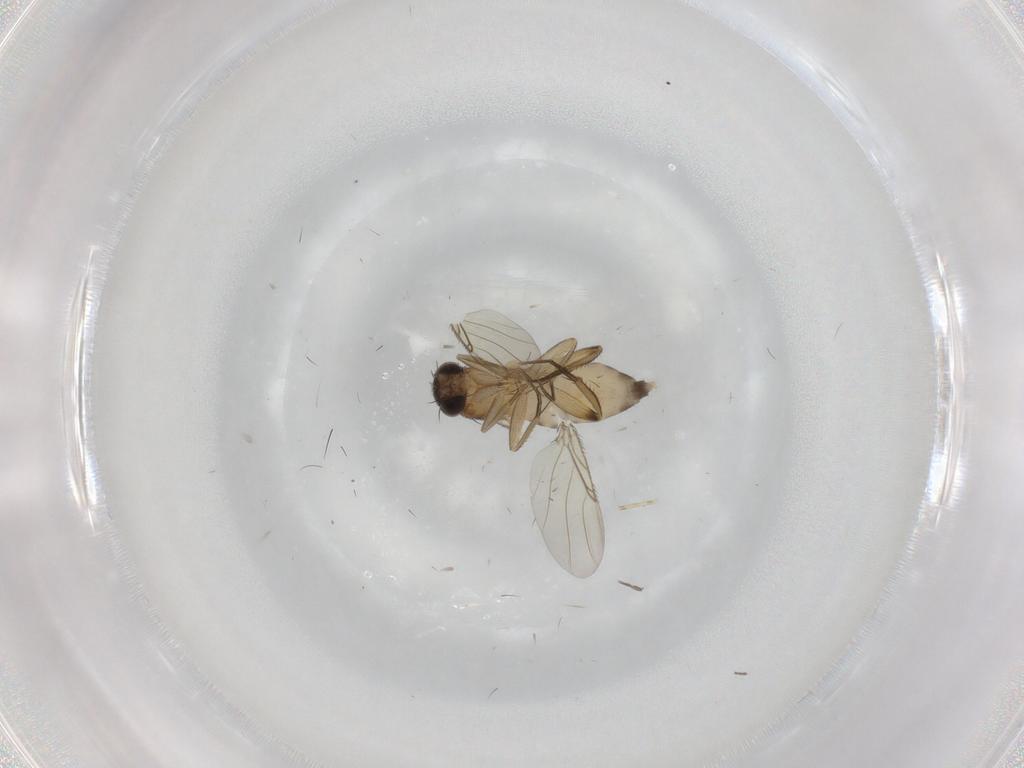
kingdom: Animalia
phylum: Arthropoda
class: Insecta
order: Diptera
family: Phoridae
